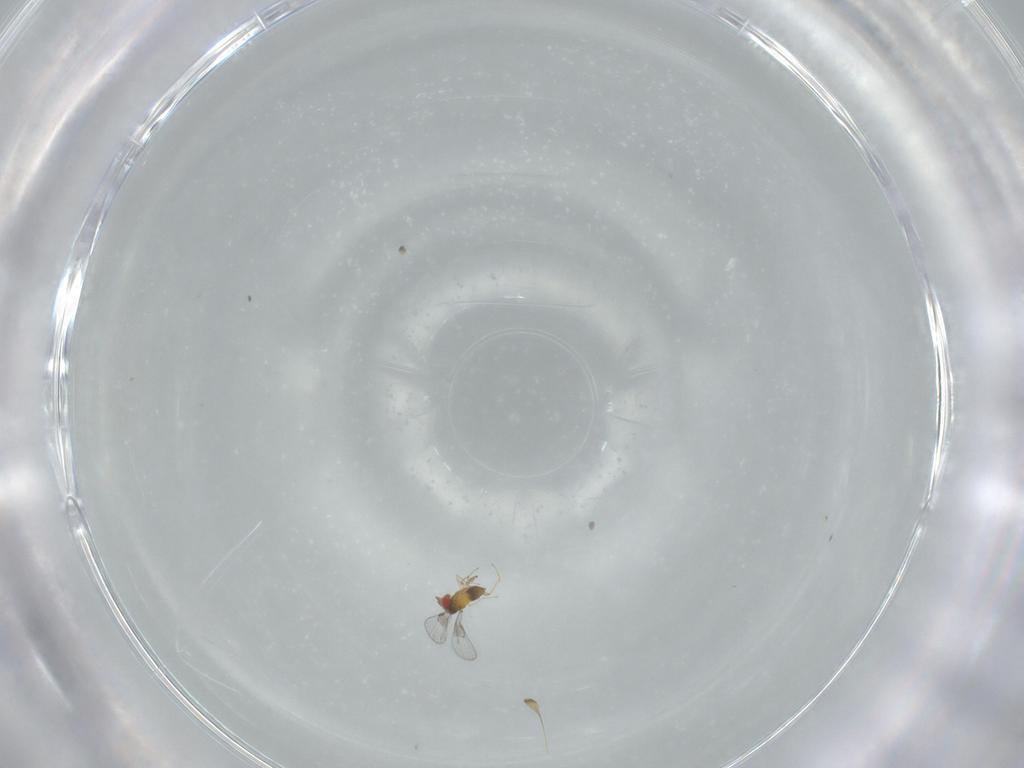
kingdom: Animalia
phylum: Arthropoda
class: Insecta
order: Hymenoptera
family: Trichogrammatidae
